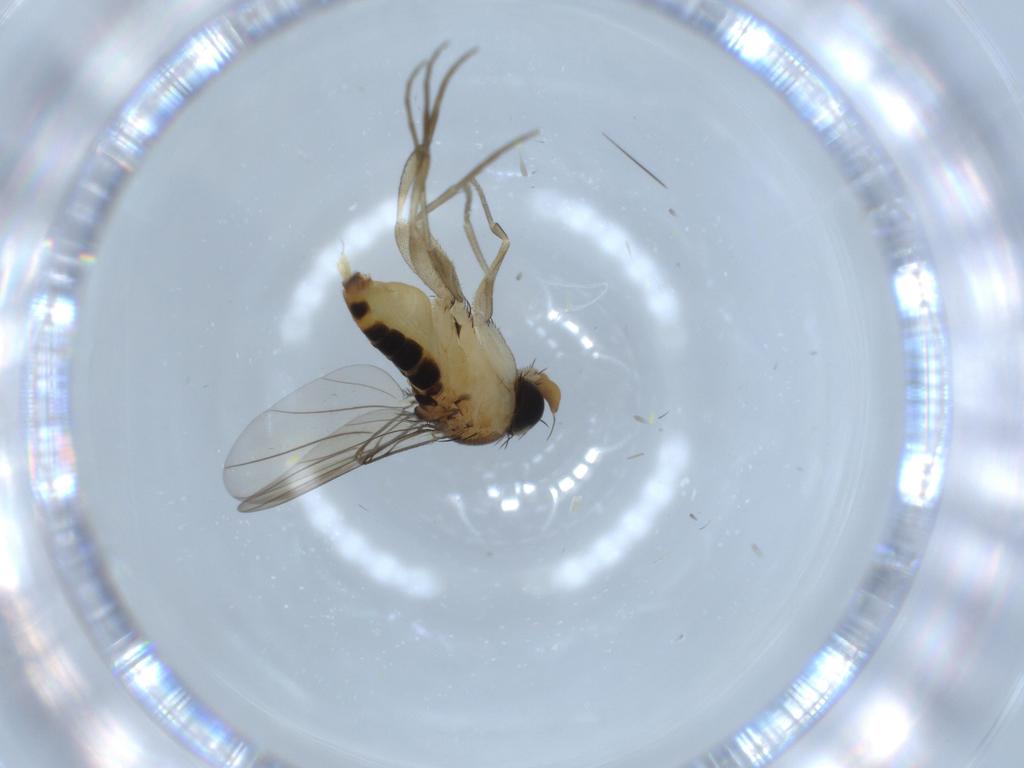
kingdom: Animalia
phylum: Arthropoda
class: Insecta
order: Diptera
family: Phoridae
